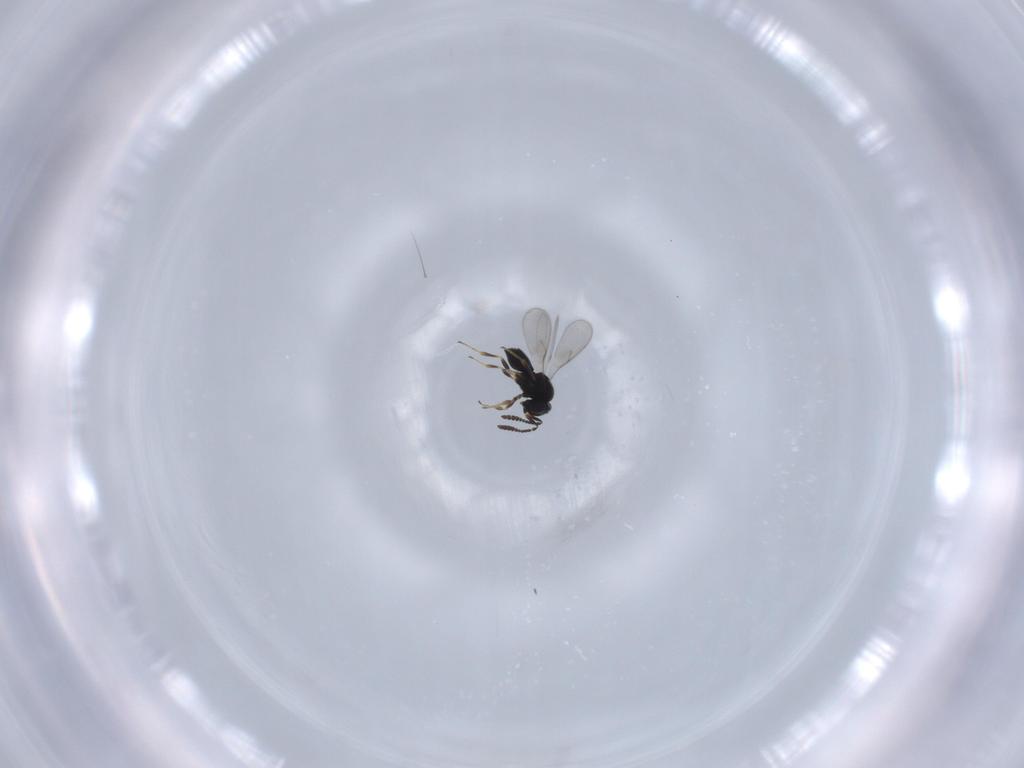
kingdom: Animalia
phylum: Arthropoda
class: Insecta
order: Hymenoptera
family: Scelionidae
